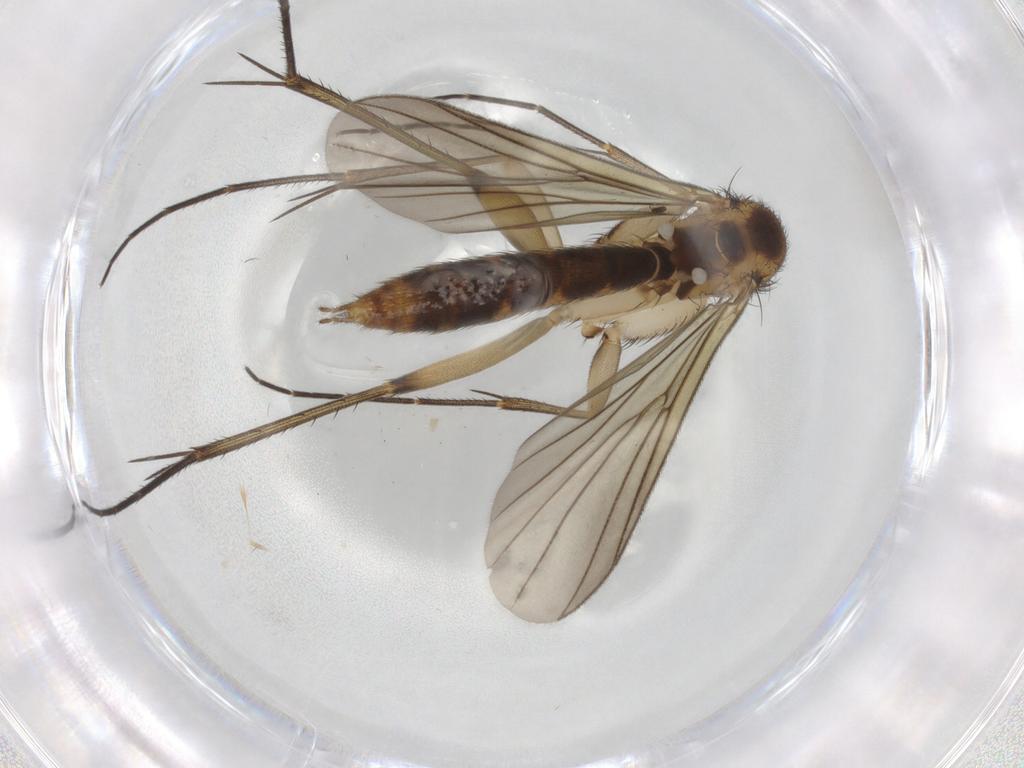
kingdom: Animalia
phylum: Arthropoda
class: Insecta
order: Diptera
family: Mycetophilidae
